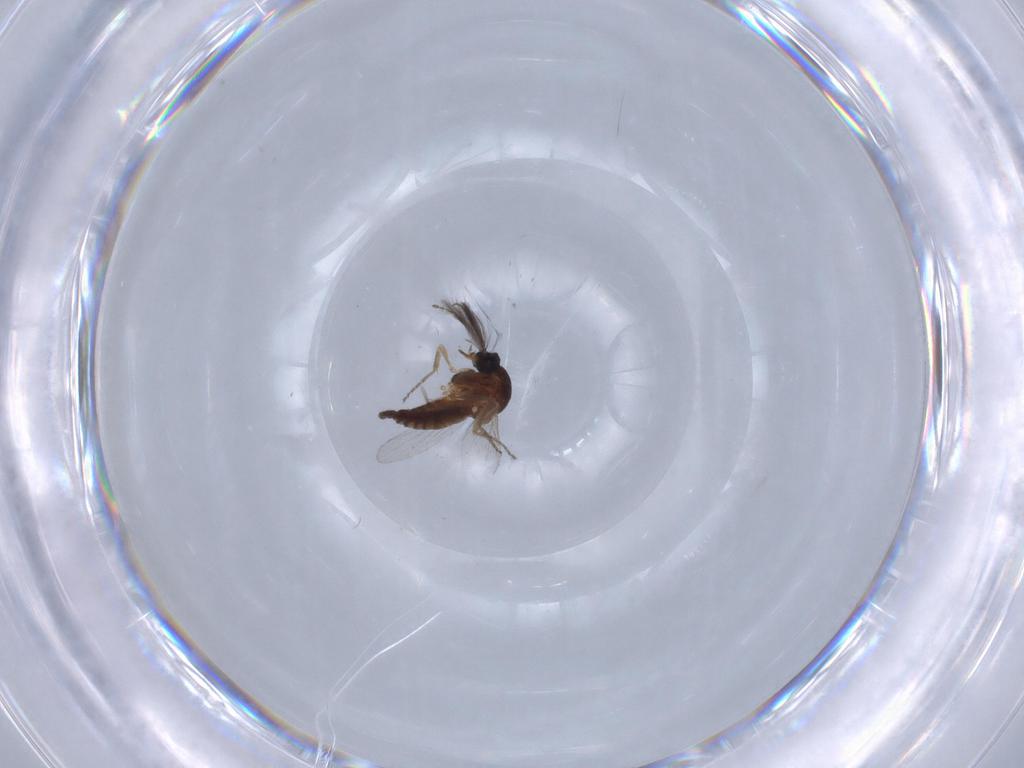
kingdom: Animalia
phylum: Arthropoda
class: Insecta
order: Diptera
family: Ceratopogonidae
